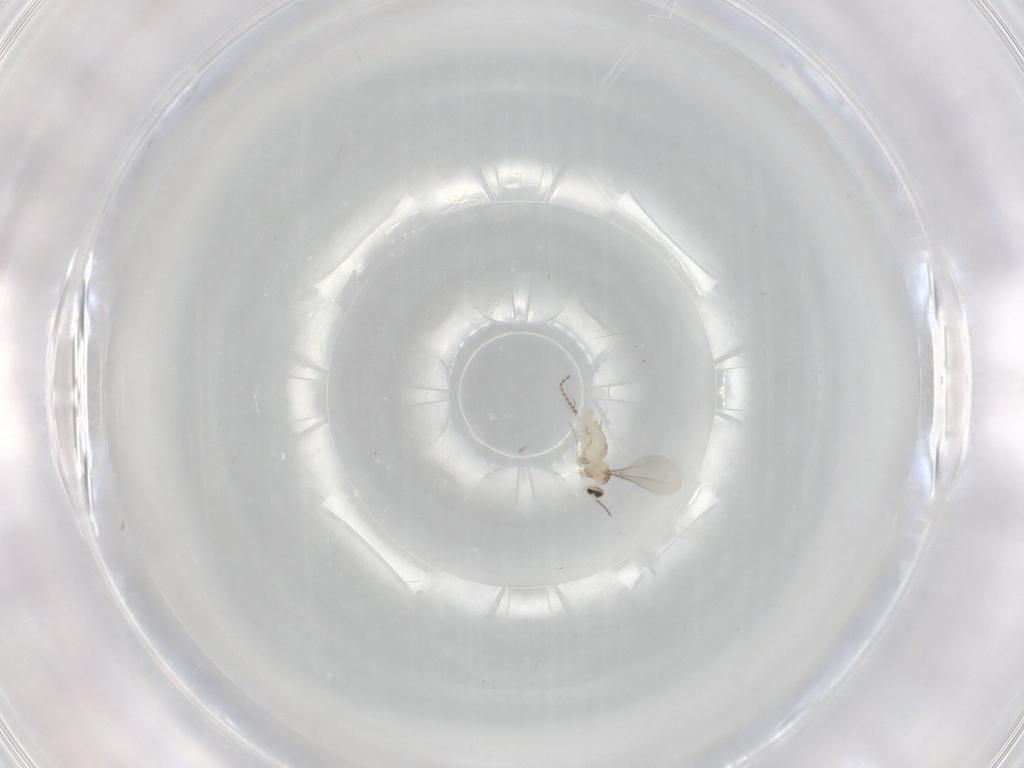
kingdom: Animalia
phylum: Arthropoda
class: Insecta
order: Diptera
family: Cecidomyiidae
